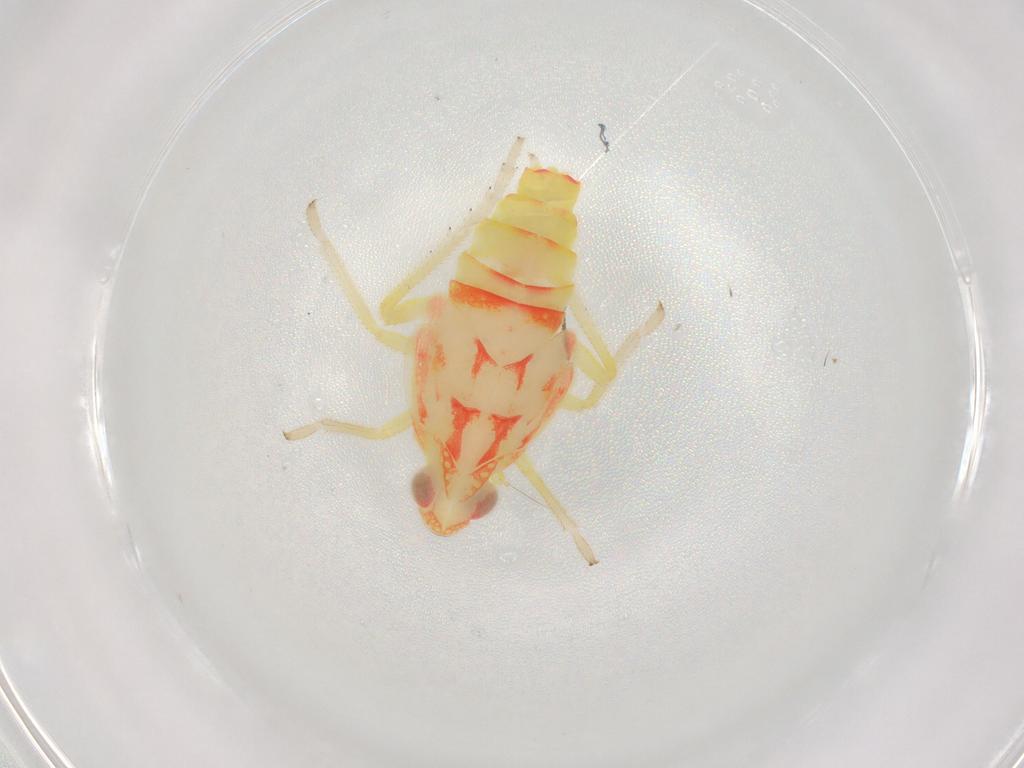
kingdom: Animalia
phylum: Arthropoda
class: Insecta
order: Hemiptera
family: Tropiduchidae
